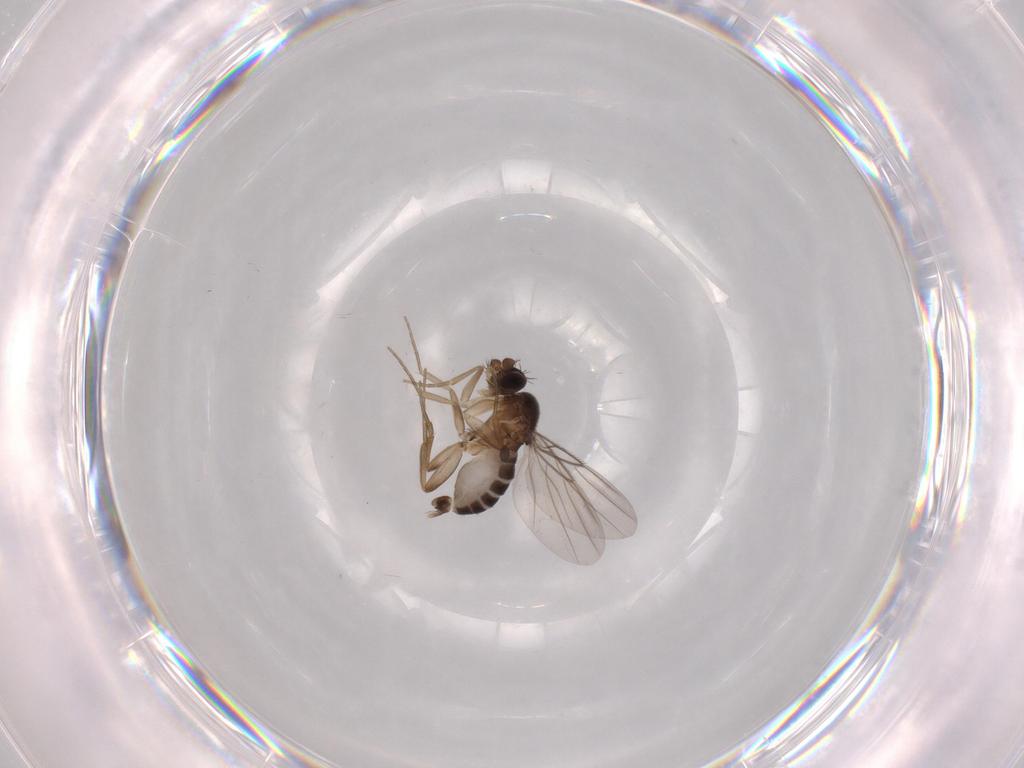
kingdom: Animalia
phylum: Arthropoda
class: Insecta
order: Diptera
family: Phoridae
